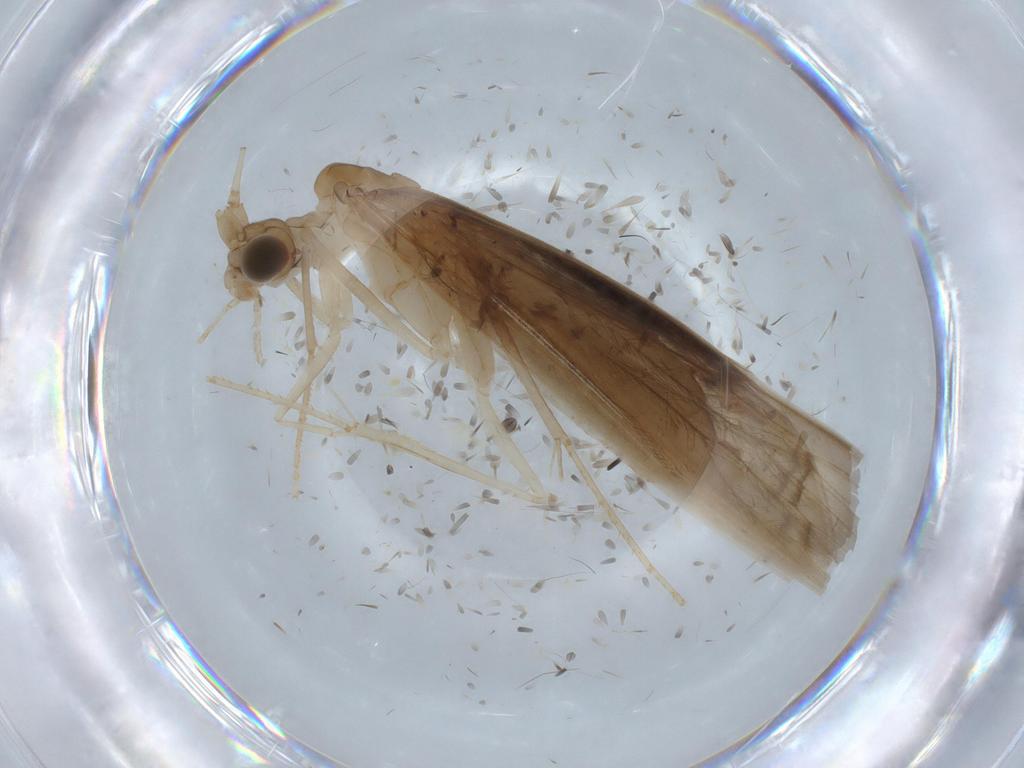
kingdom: Animalia
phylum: Arthropoda
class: Insecta
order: Trichoptera
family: Leptoceridae
